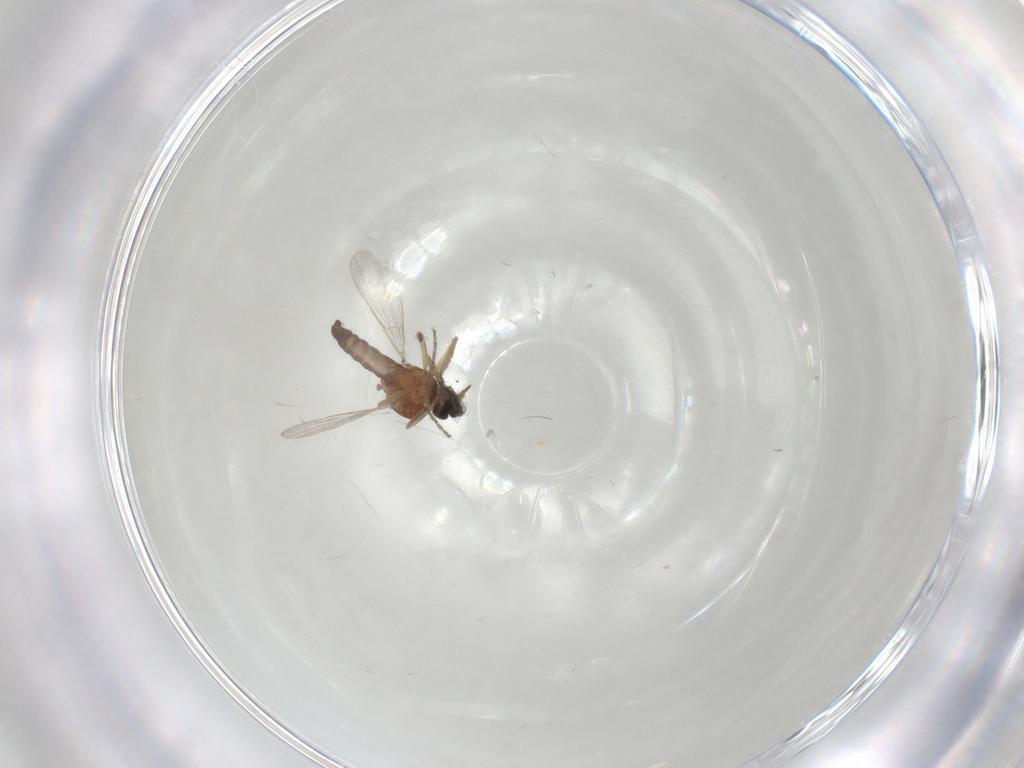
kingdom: Animalia
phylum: Arthropoda
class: Insecta
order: Diptera
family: Ceratopogonidae
